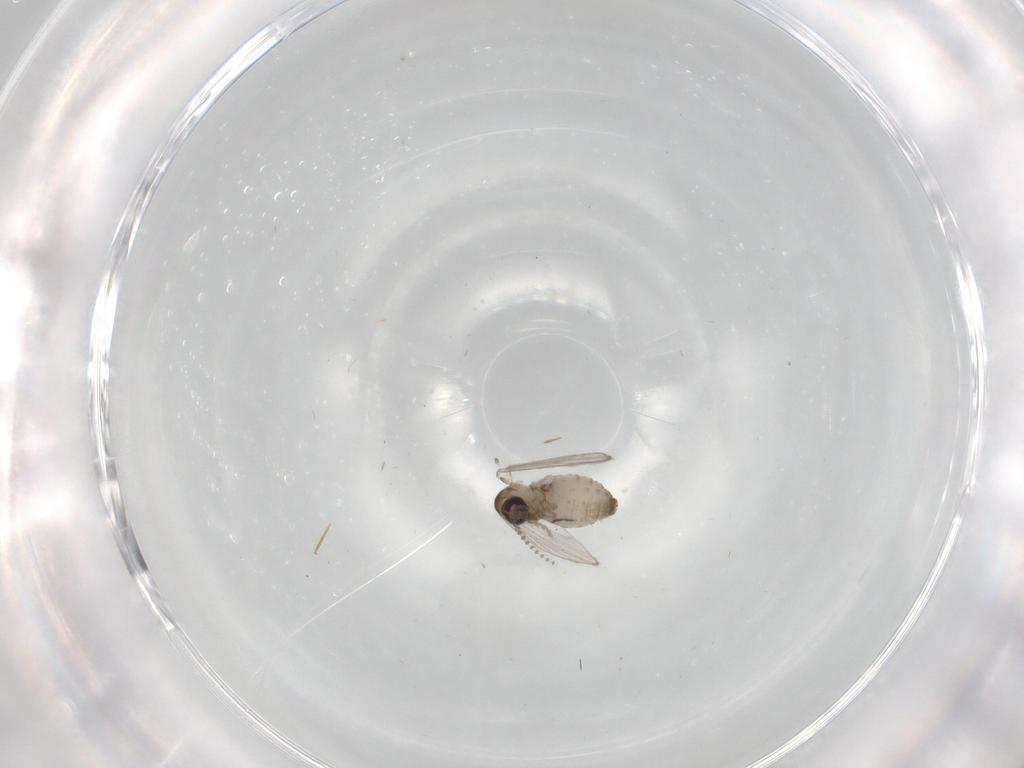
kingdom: Animalia
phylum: Arthropoda
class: Insecta
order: Diptera
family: Psychodidae
